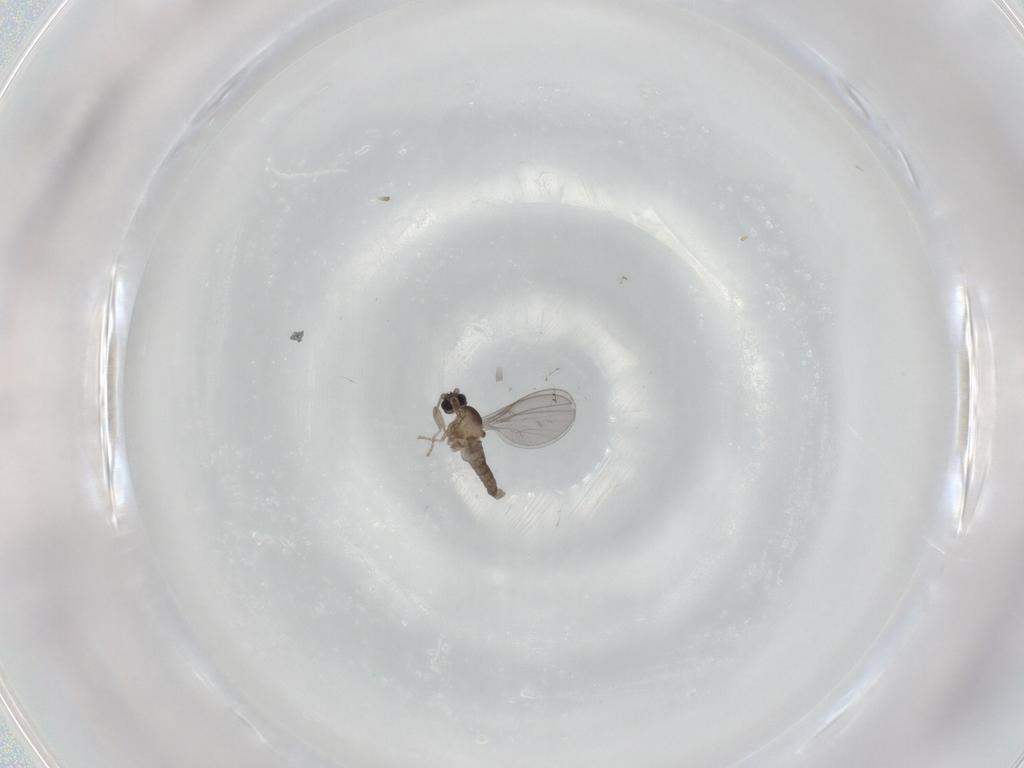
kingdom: Animalia
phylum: Arthropoda
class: Insecta
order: Diptera
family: Cecidomyiidae
